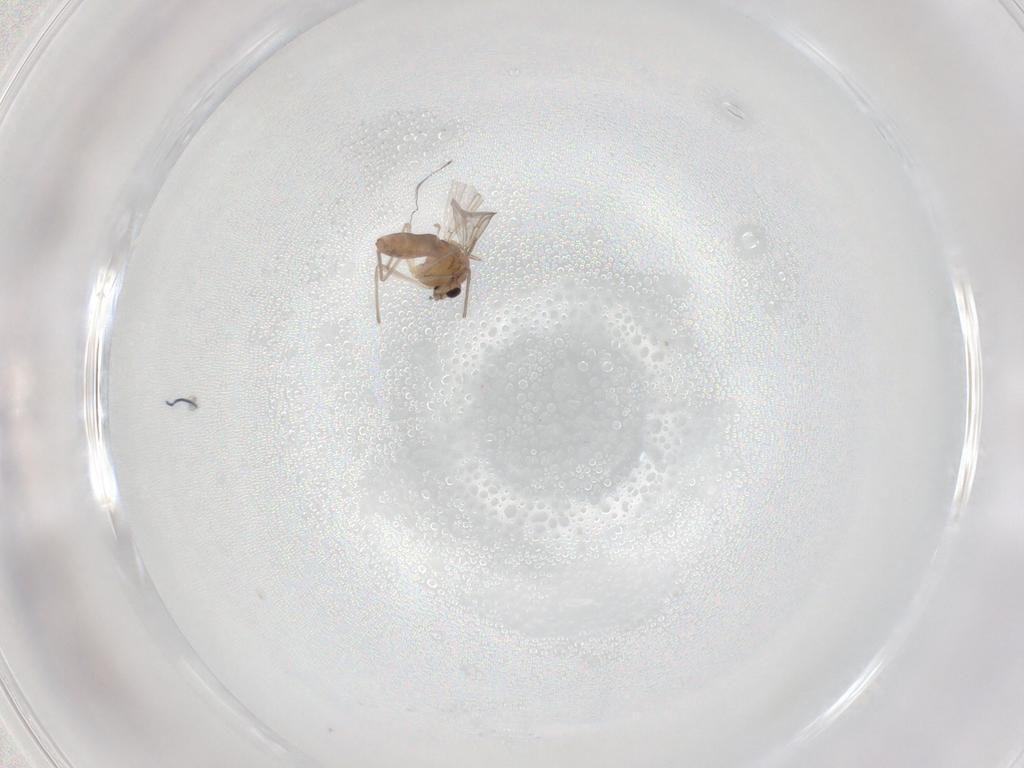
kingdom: Animalia
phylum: Arthropoda
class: Insecta
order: Diptera
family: Chironomidae
